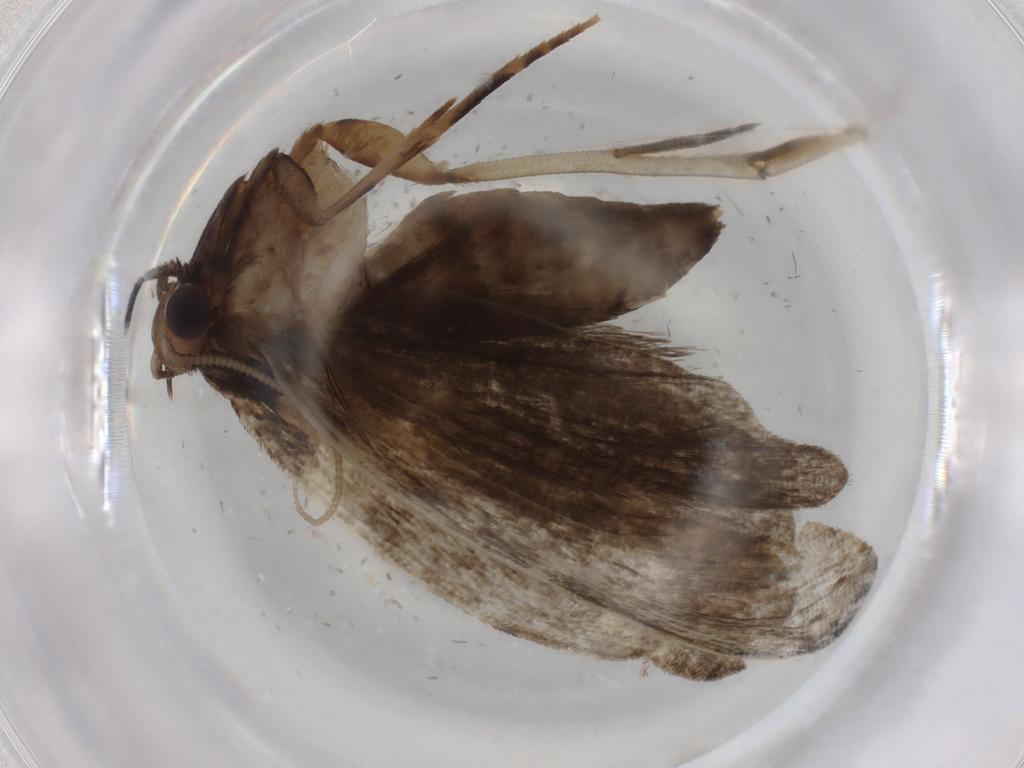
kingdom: Animalia
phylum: Arthropoda
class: Insecta
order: Lepidoptera
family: Tineidae
